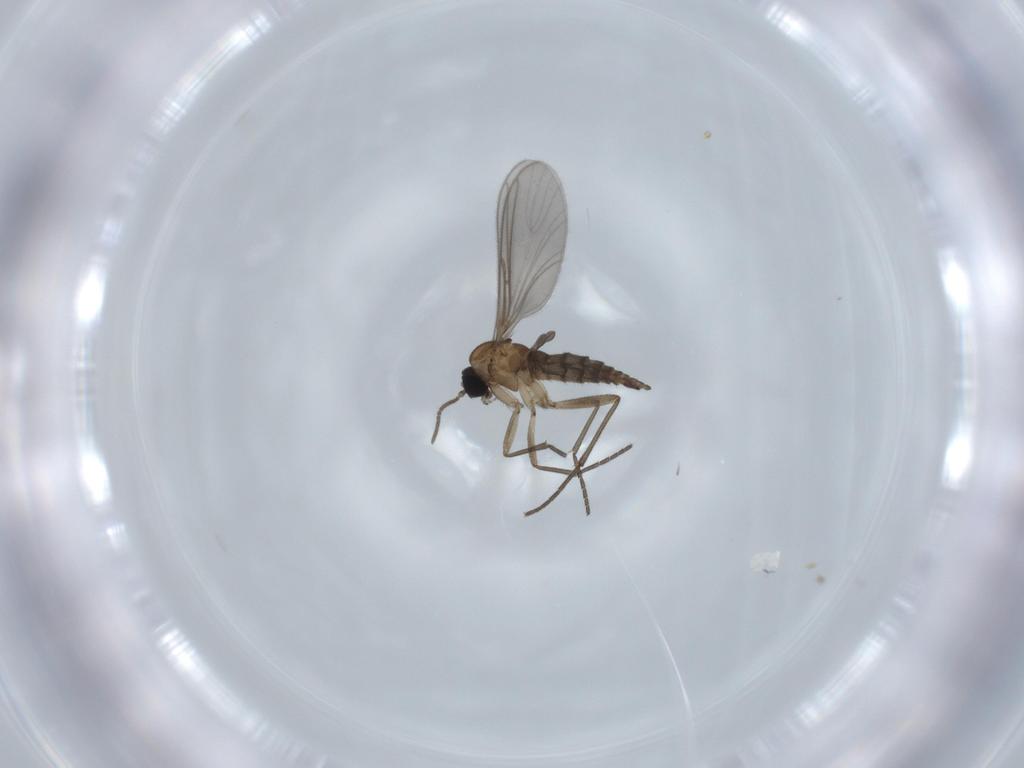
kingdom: Animalia
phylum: Arthropoda
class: Insecta
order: Diptera
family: Sciaridae
